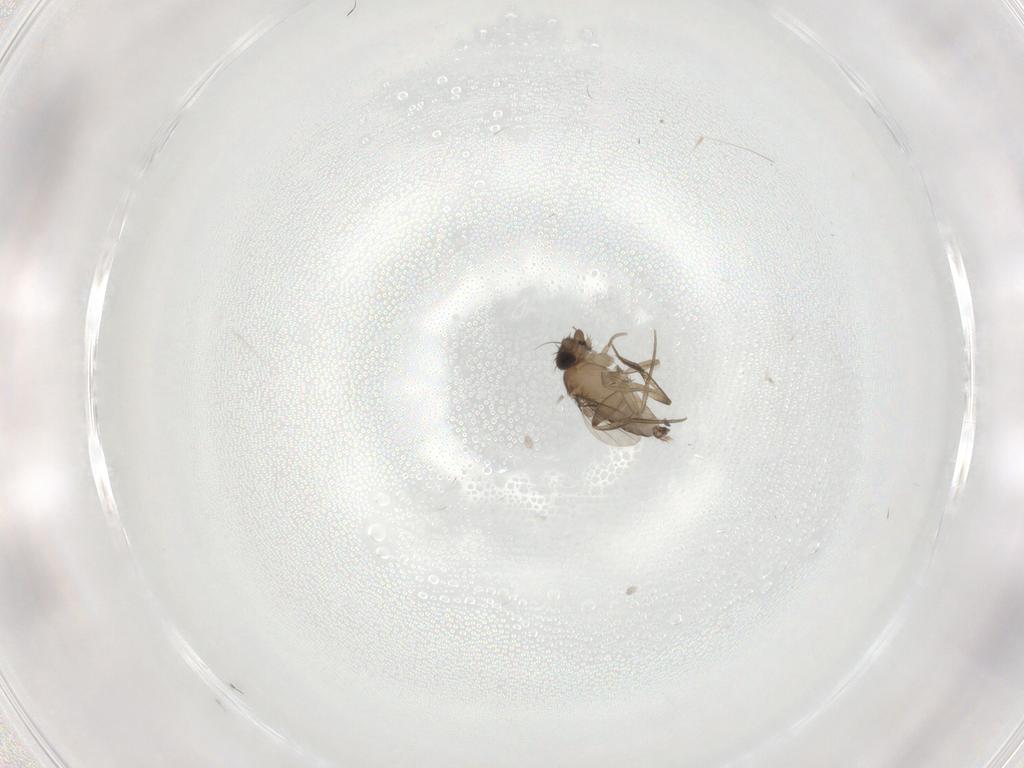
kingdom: Animalia
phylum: Arthropoda
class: Insecta
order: Diptera
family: Phoridae
